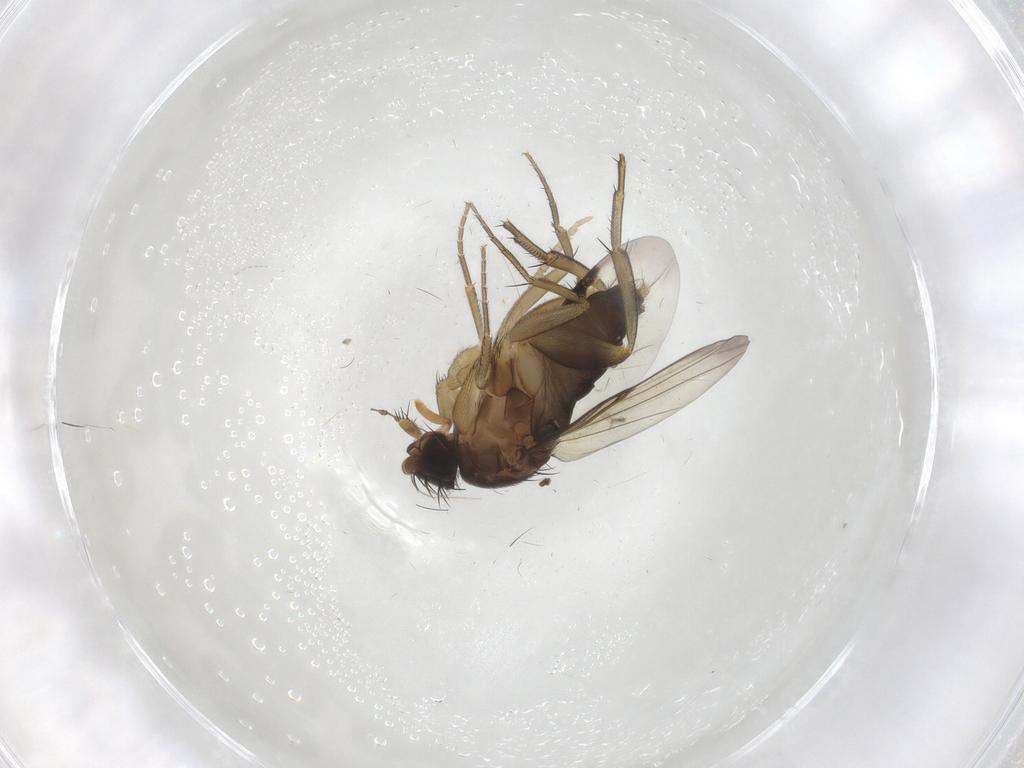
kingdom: Animalia
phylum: Arthropoda
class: Insecta
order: Diptera
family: Phoridae
